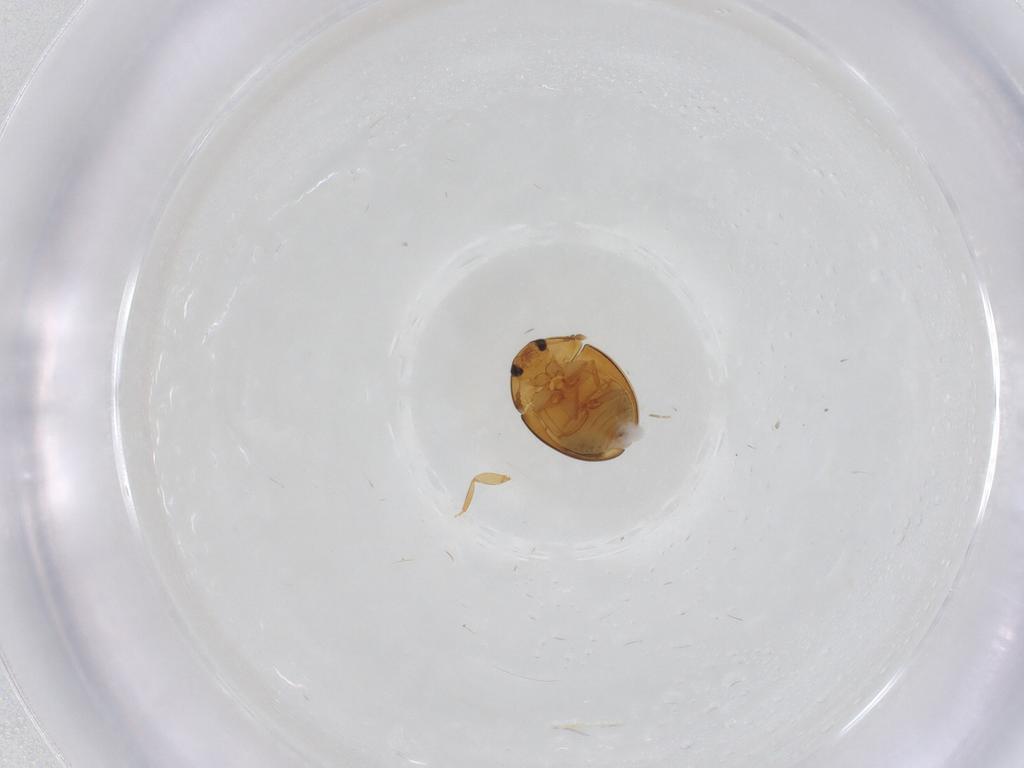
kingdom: Animalia
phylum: Arthropoda
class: Insecta
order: Coleoptera
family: Phalacridae
